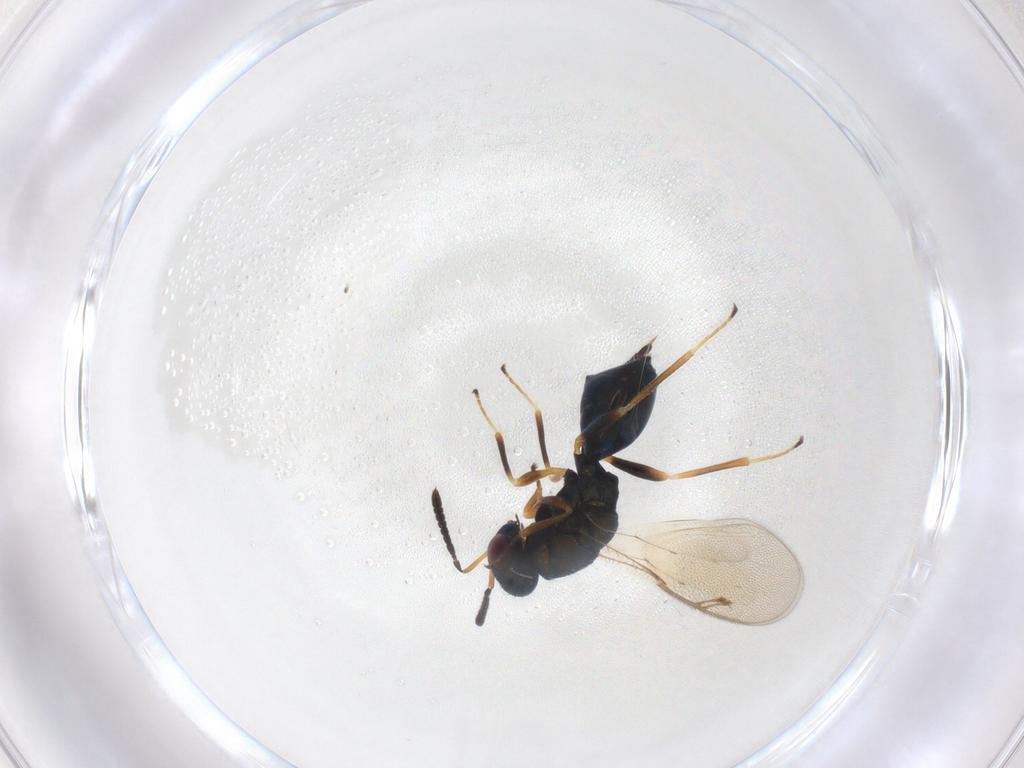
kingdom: Animalia
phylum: Arthropoda
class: Insecta
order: Hymenoptera
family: Pteromalidae
